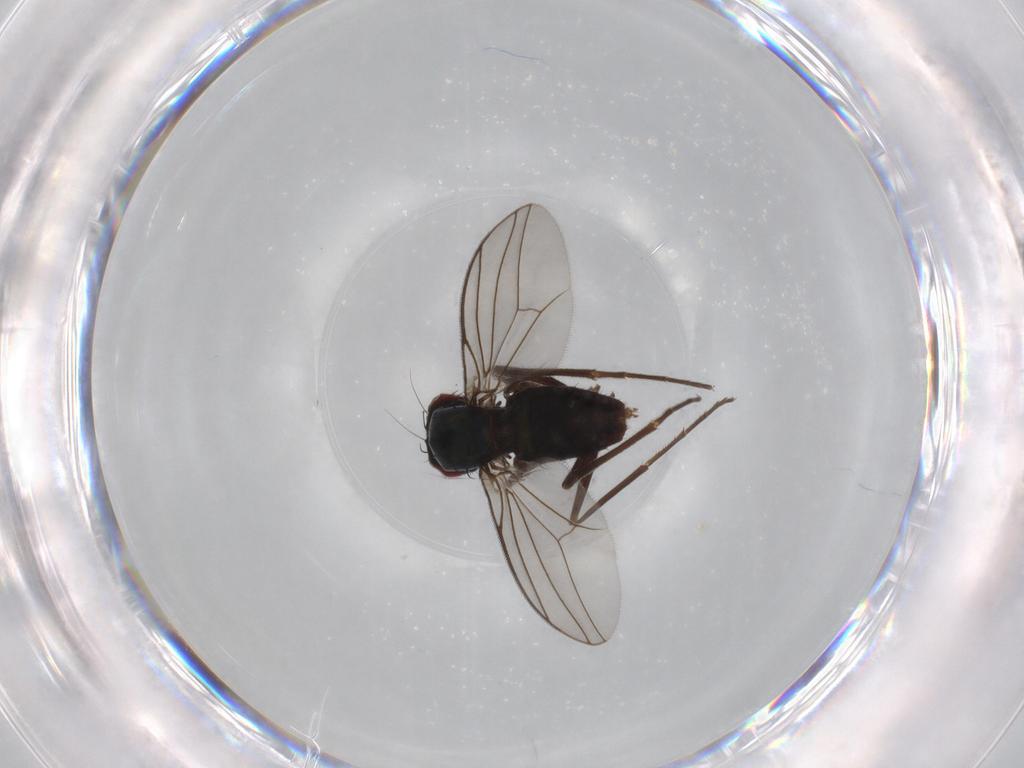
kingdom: Animalia
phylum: Arthropoda
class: Insecta
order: Diptera
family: Dolichopodidae
